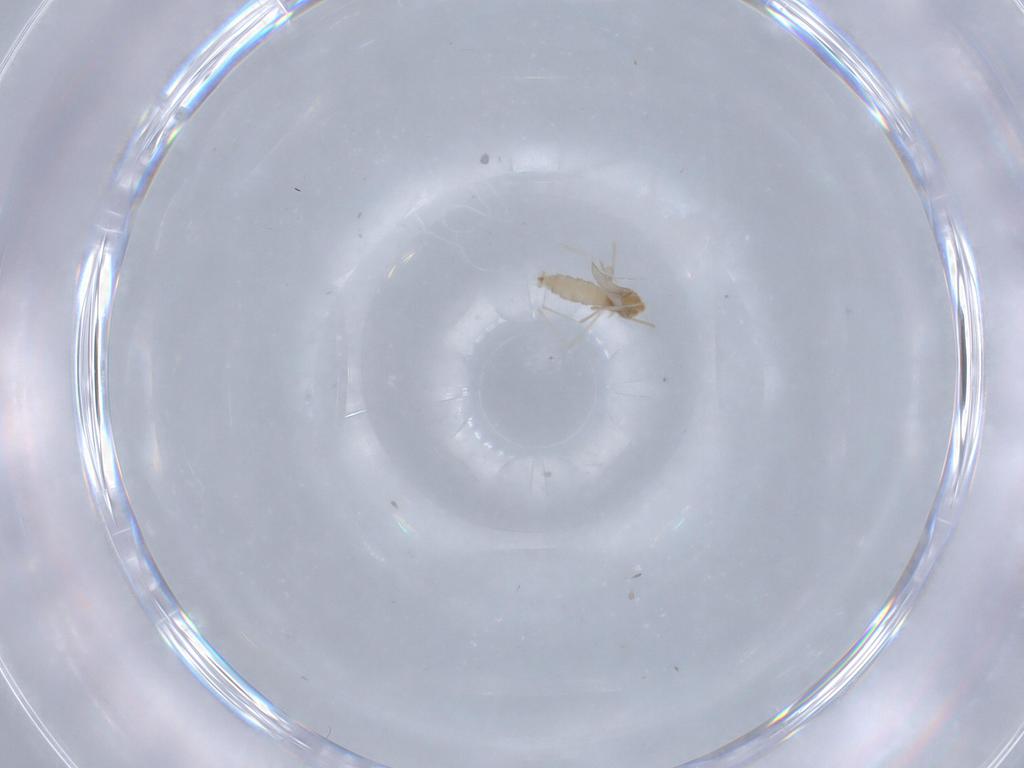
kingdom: Animalia
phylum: Arthropoda
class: Insecta
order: Diptera
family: Cecidomyiidae
